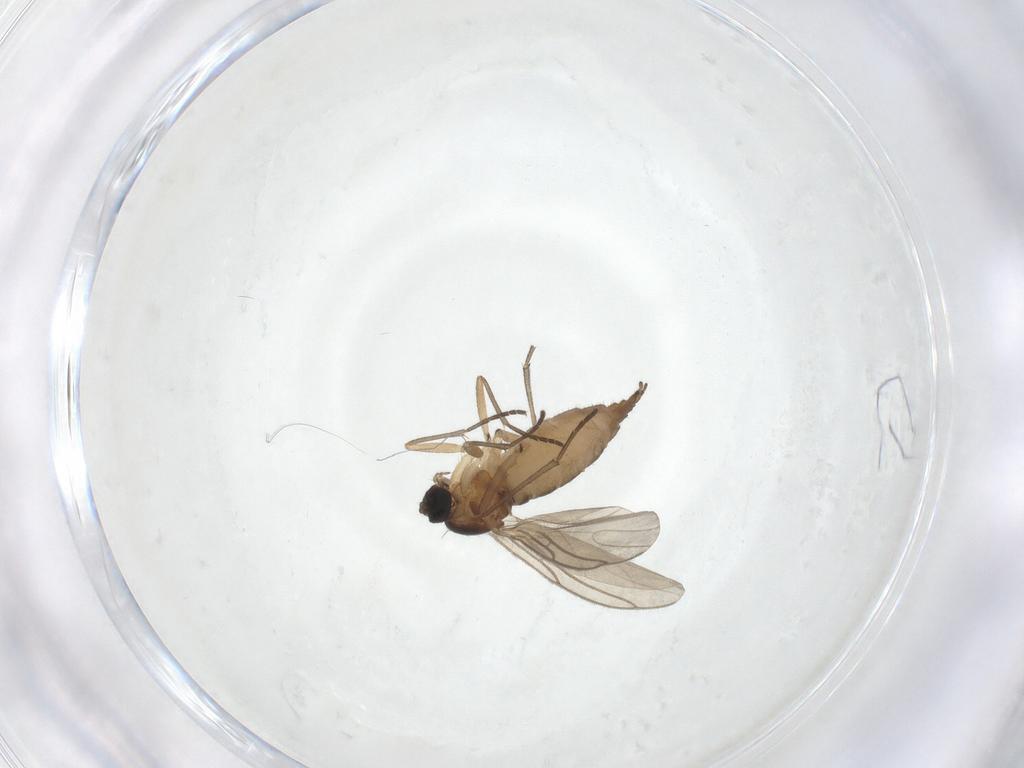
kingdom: Animalia
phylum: Arthropoda
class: Insecta
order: Diptera
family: Sciaridae
